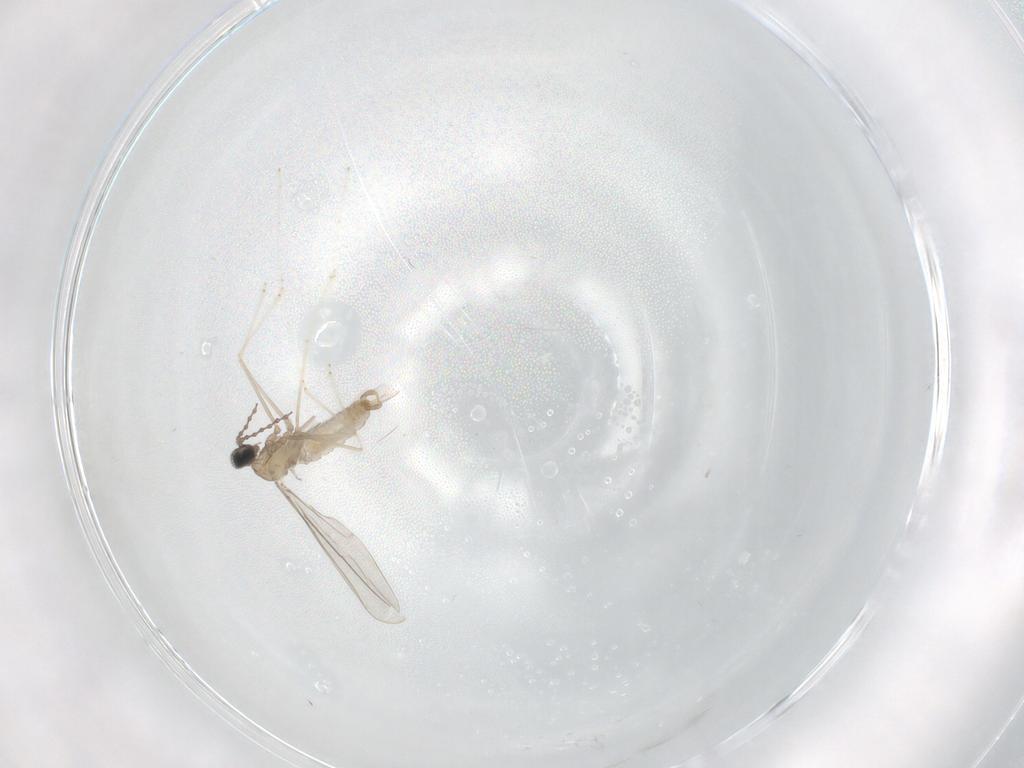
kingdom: Animalia
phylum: Arthropoda
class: Insecta
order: Diptera
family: Cecidomyiidae
